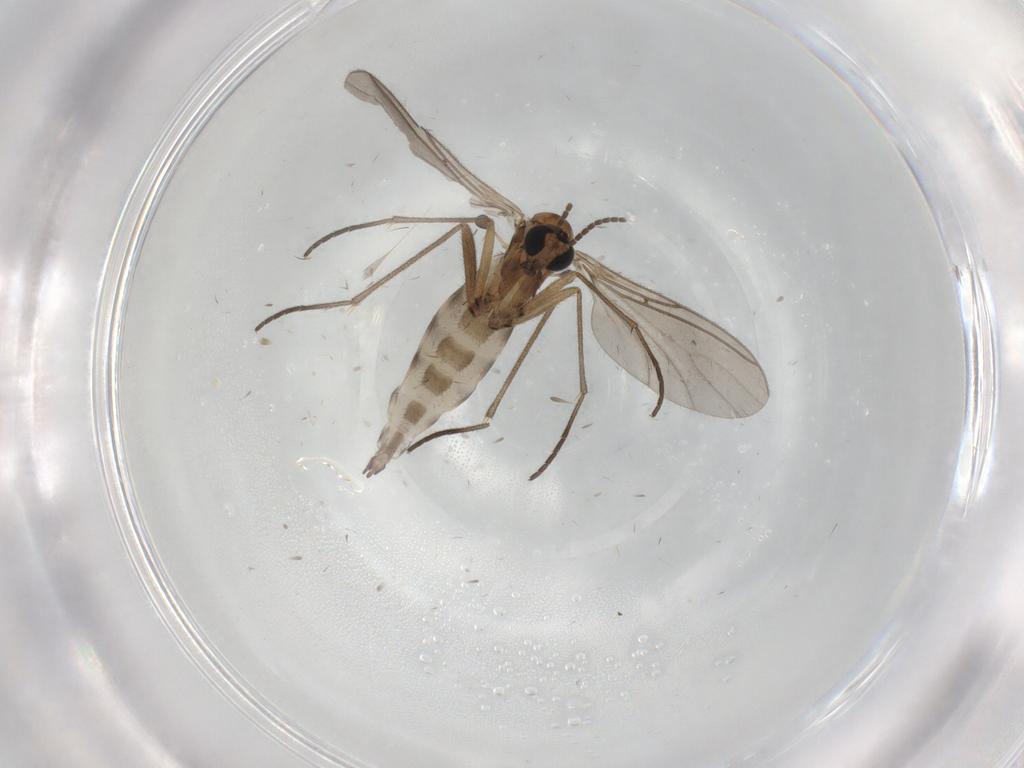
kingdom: Animalia
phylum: Arthropoda
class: Insecta
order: Diptera
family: Sciaridae
